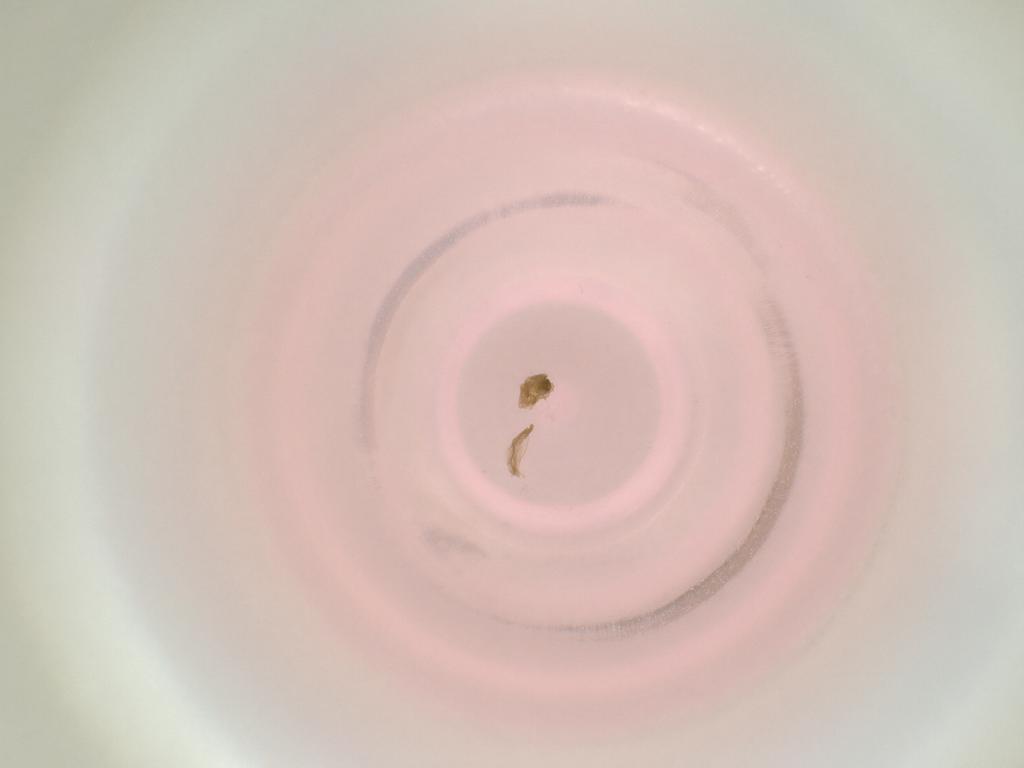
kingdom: Animalia
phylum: Arthropoda
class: Insecta
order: Diptera
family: Cecidomyiidae
